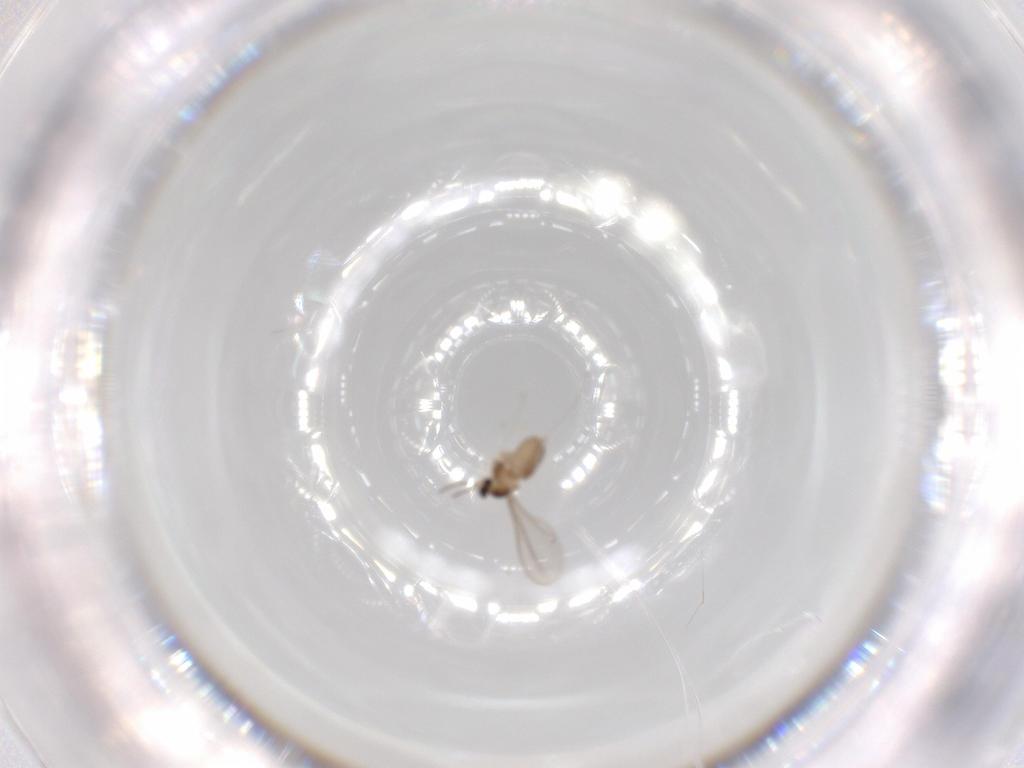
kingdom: Animalia
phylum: Arthropoda
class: Insecta
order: Diptera
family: Cecidomyiidae
